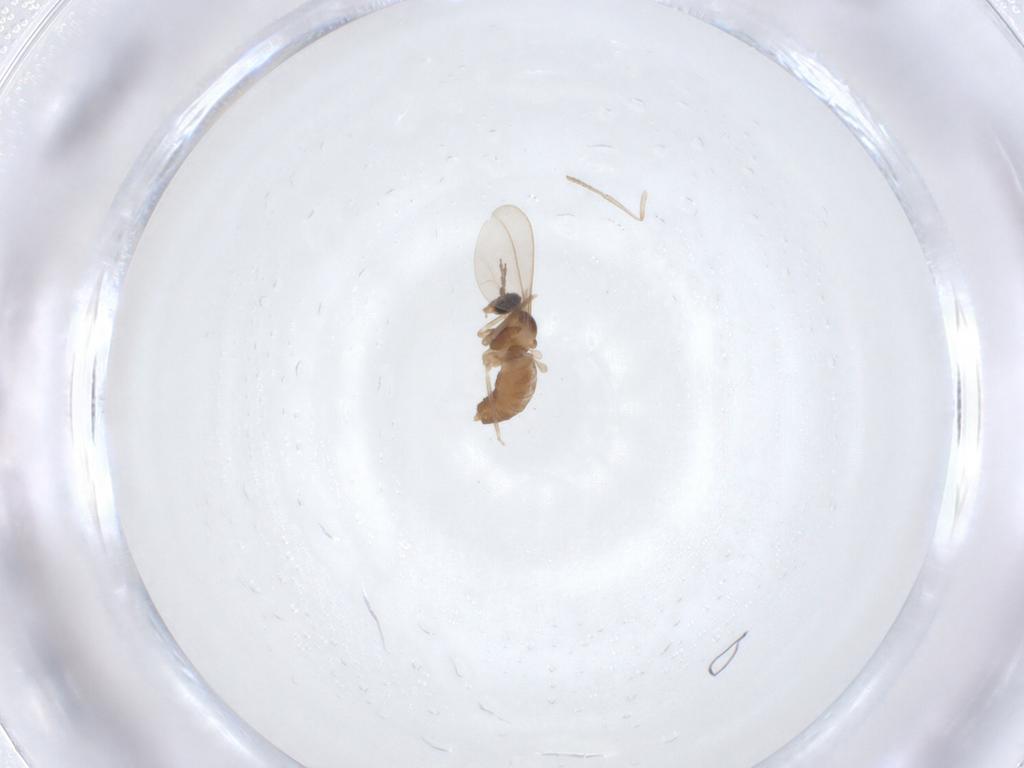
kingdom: Animalia
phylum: Arthropoda
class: Insecta
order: Diptera
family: Cecidomyiidae
